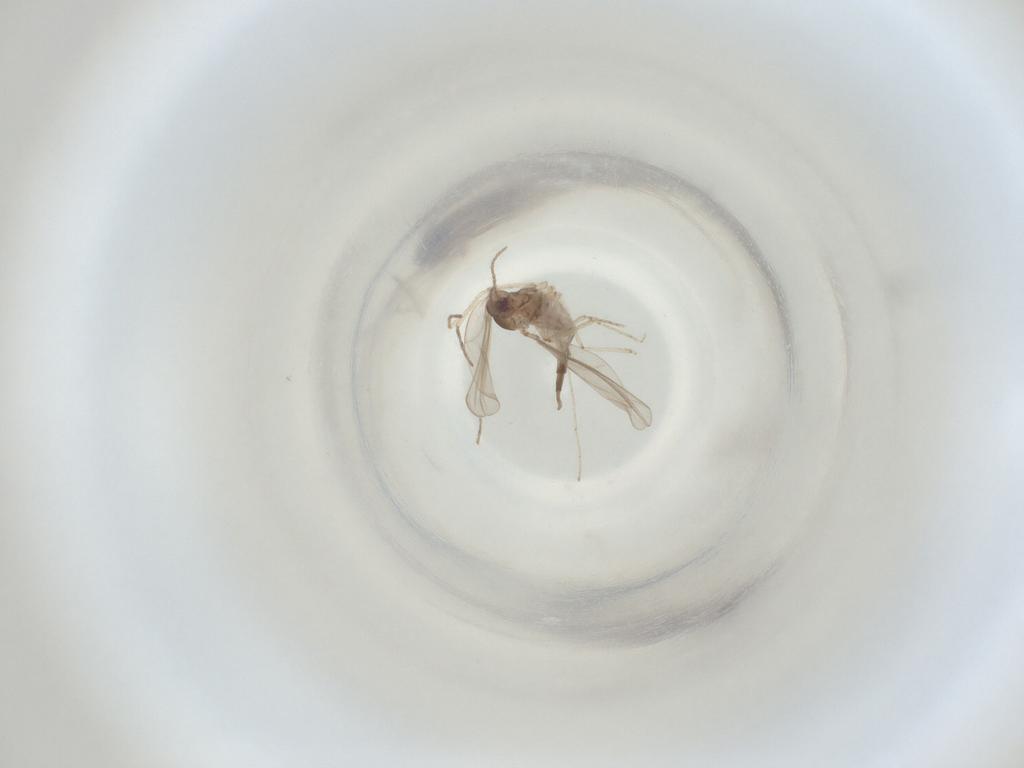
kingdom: Animalia
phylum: Arthropoda
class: Insecta
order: Diptera
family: Cecidomyiidae
